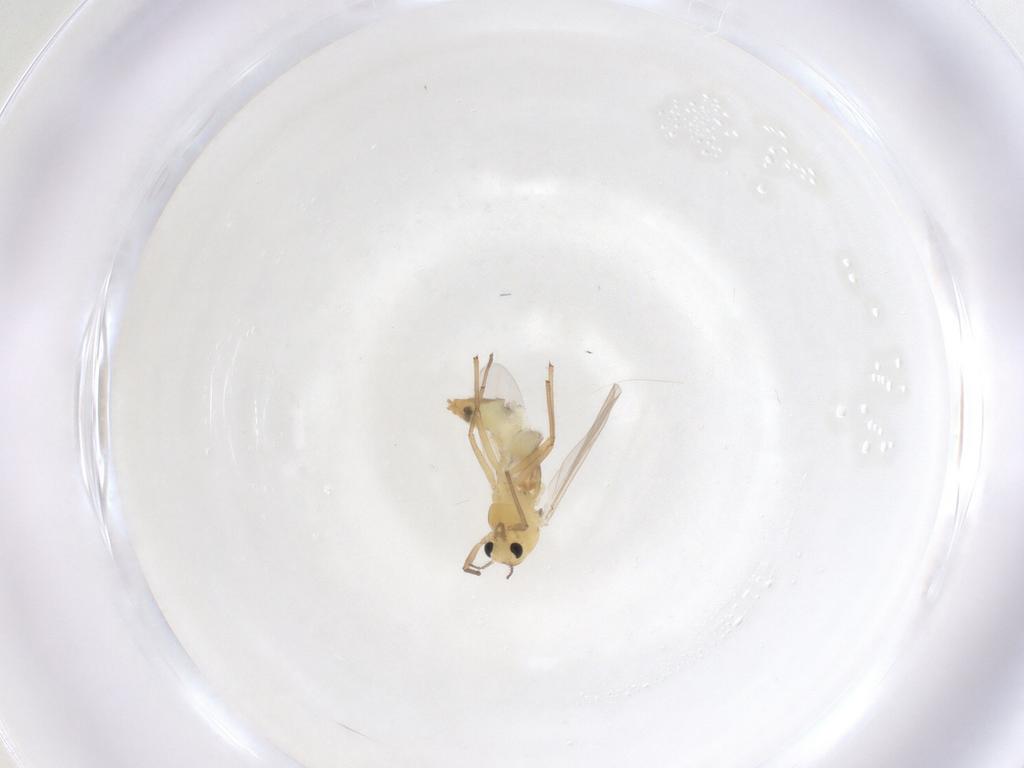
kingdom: Animalia
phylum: Arthropoda
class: Insecta
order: Diptera
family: Chironomidae
